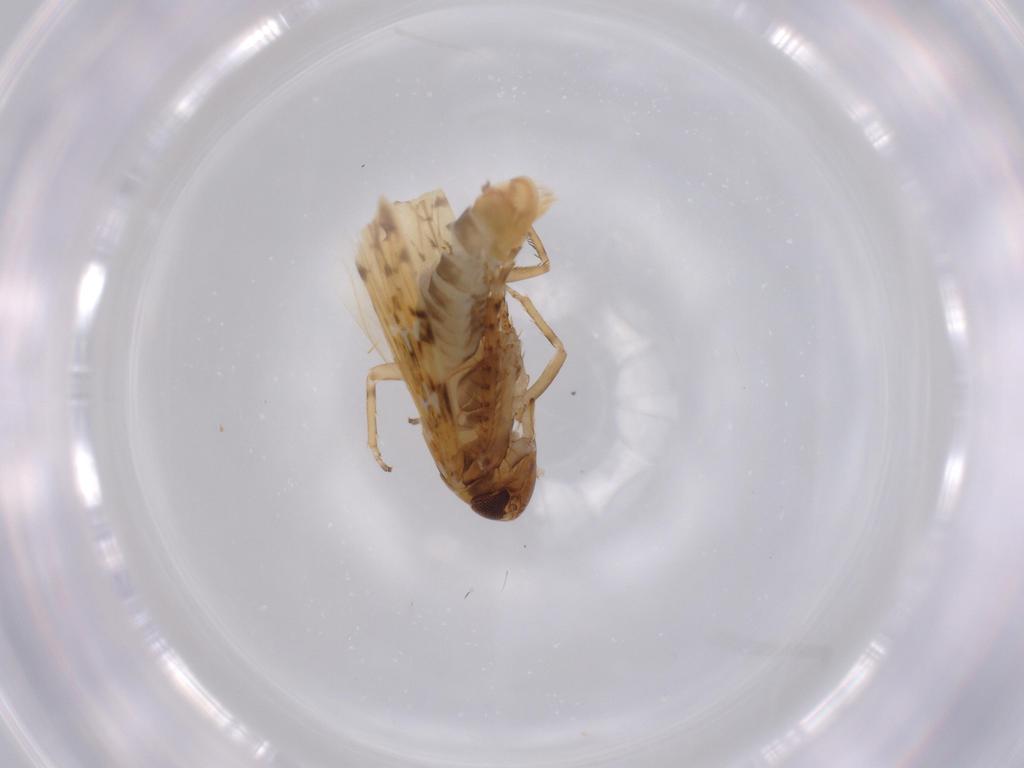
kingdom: Animalia
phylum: Arthropoda
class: Insecta
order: Hemiptera
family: Cicadellidae
